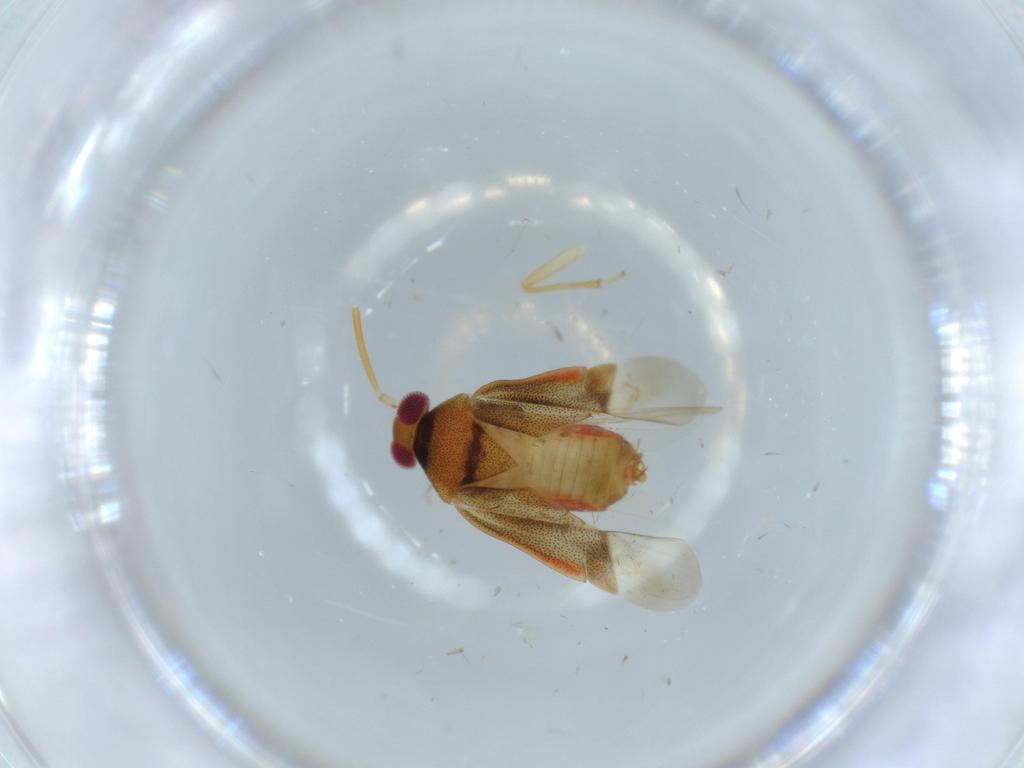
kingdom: Animalia
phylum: Arthropoda
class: Insecta
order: Hemiptera
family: Miridae
